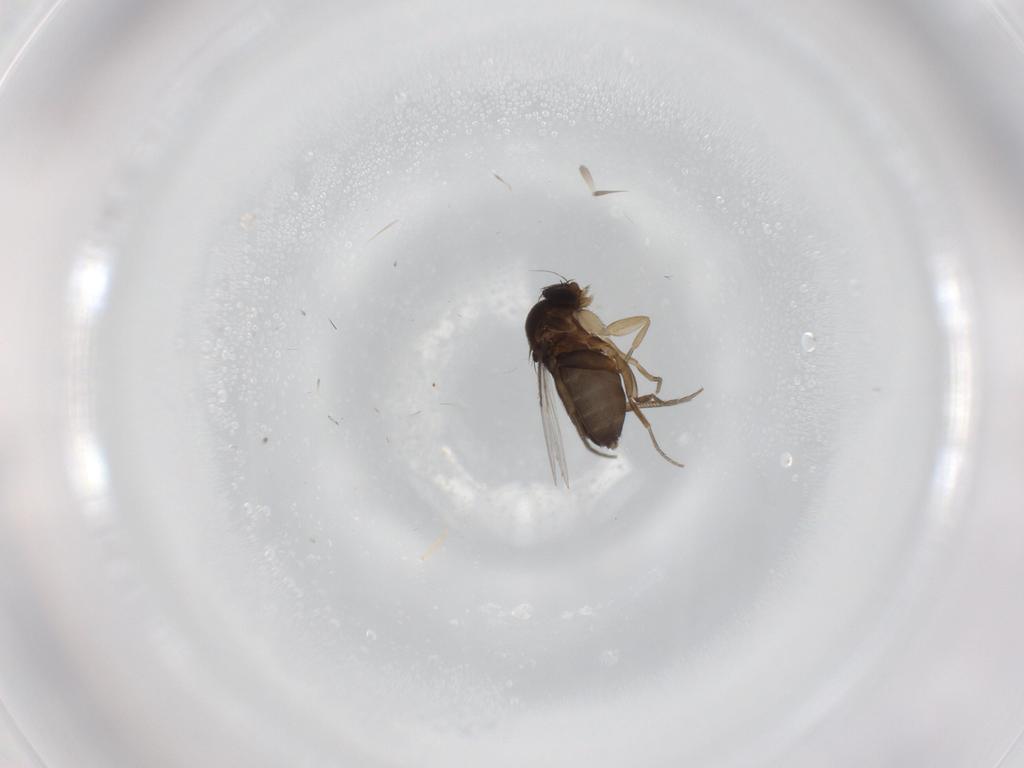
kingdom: Animalia
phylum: Arthropoda
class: Insecta
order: Diptera
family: Phoridae
